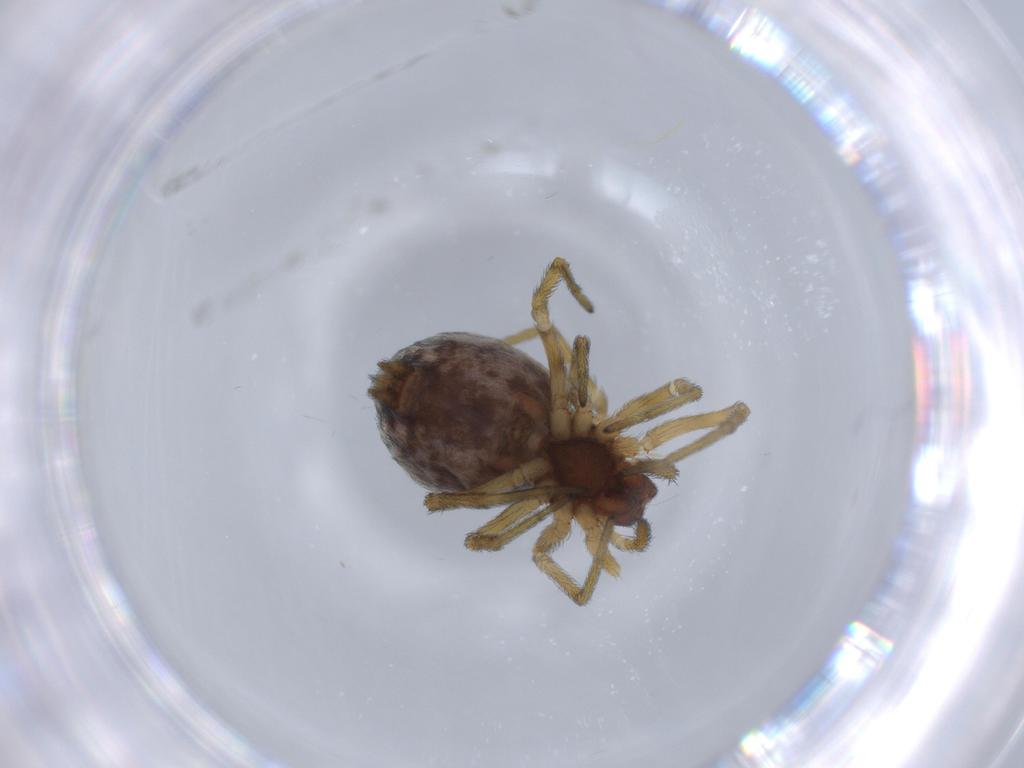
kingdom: Animalia
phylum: Arthropoda
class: Arachnida
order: Araneae
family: Dictynidae
